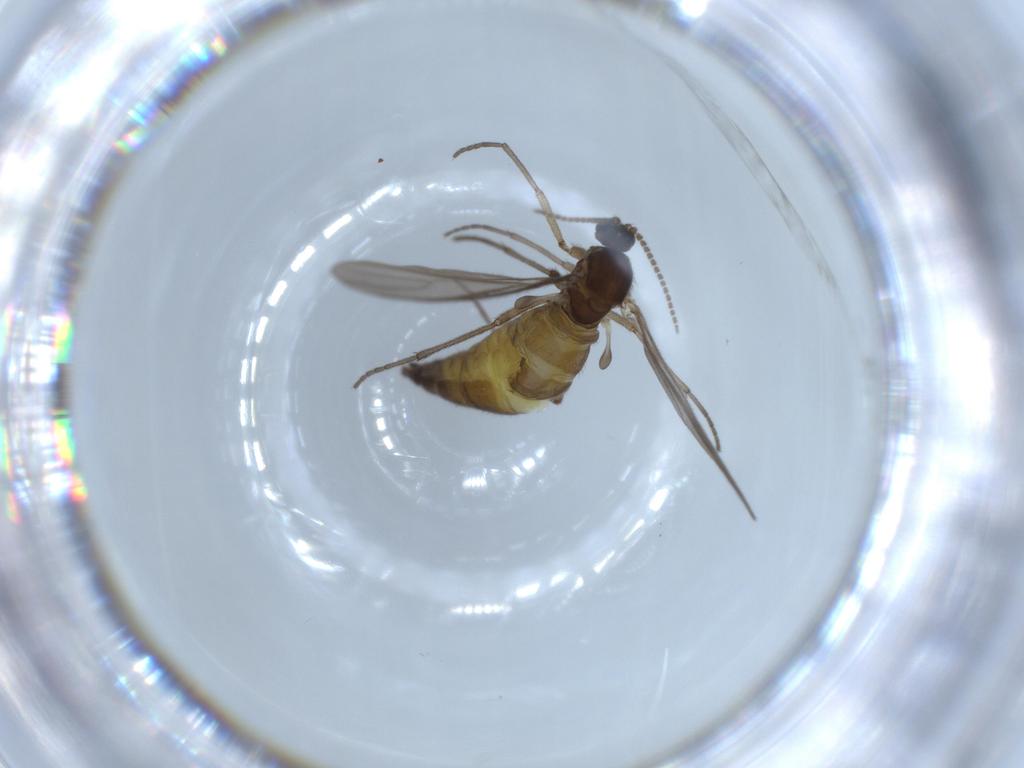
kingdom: Animalia
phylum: Arthropoda
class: Insecta
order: Diptera
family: Sciaridae
